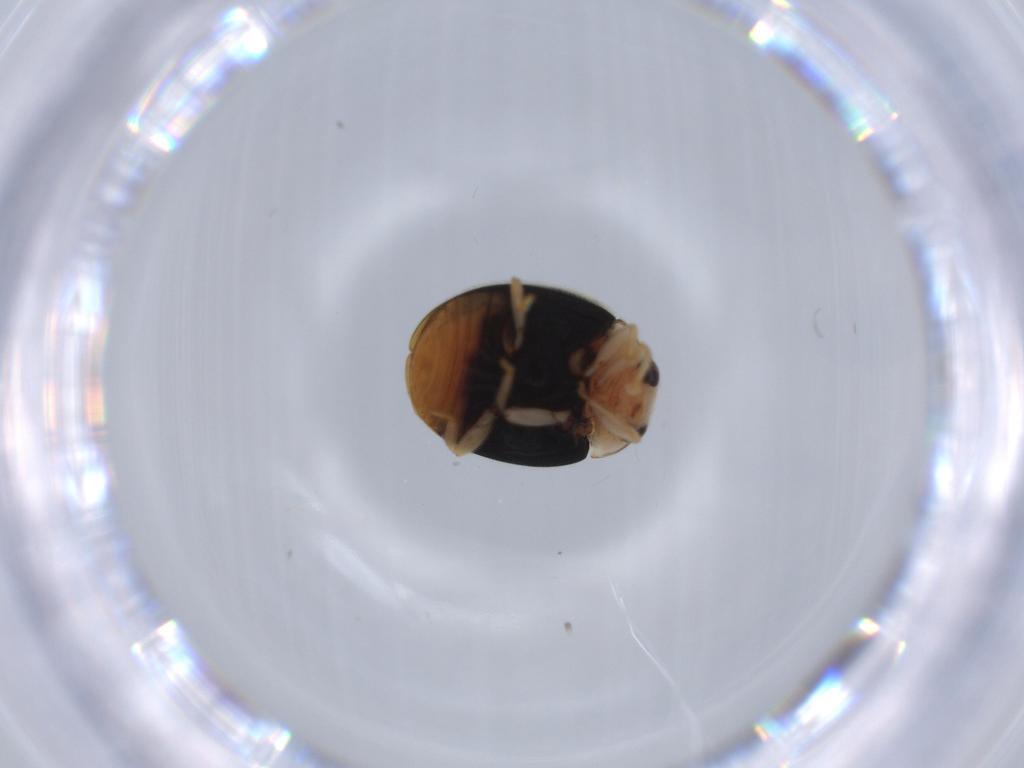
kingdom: Animalia
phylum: Arthropoda
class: Insecta
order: Coleoptera
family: Coccinellidae
